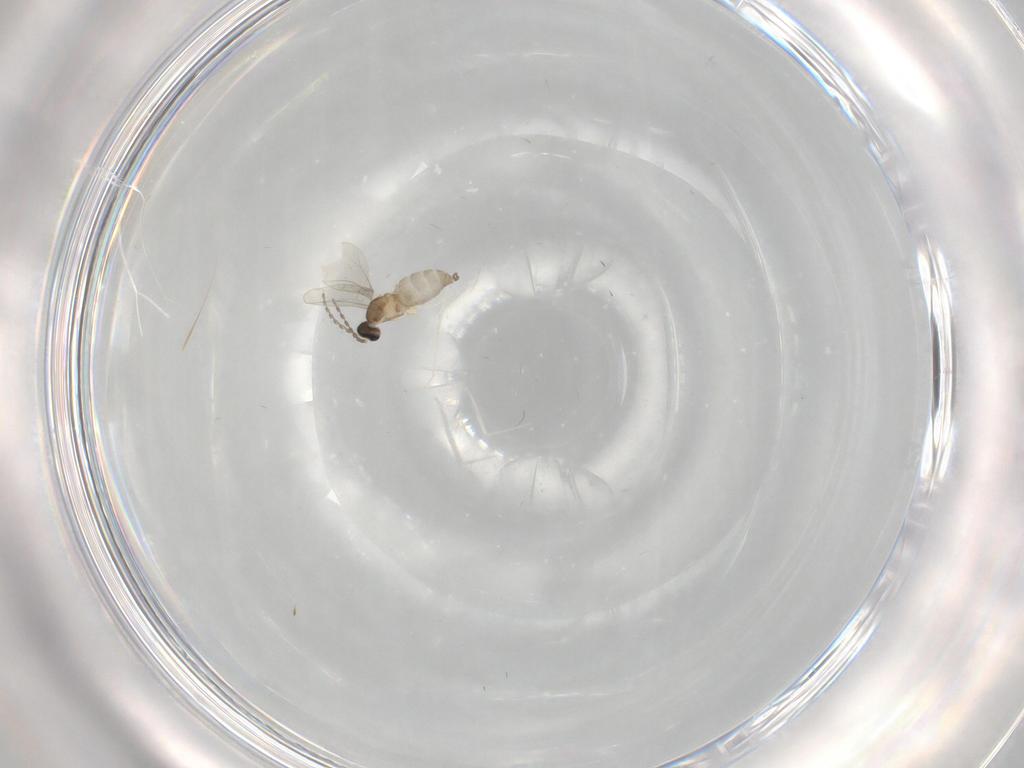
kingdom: Animalia
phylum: Arthropoda
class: Insecta
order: Diptera
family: Cecidomyiidae
